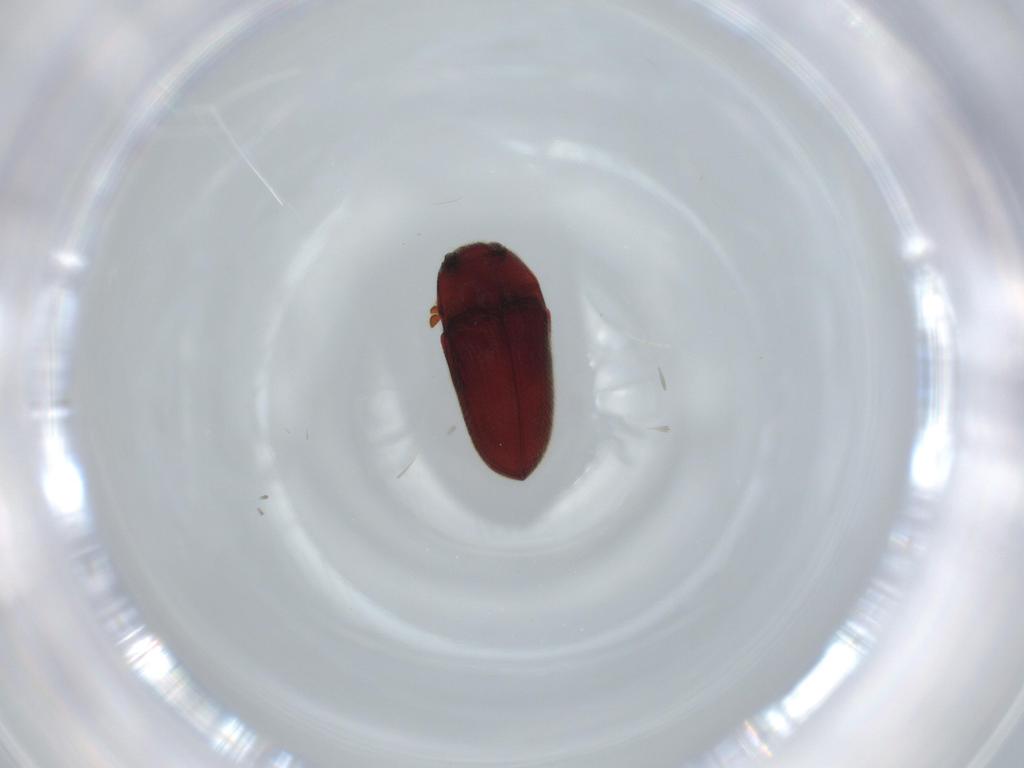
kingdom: Animalia
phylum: Arthropoda
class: Insecta
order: Coleoptera
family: Throscidae
